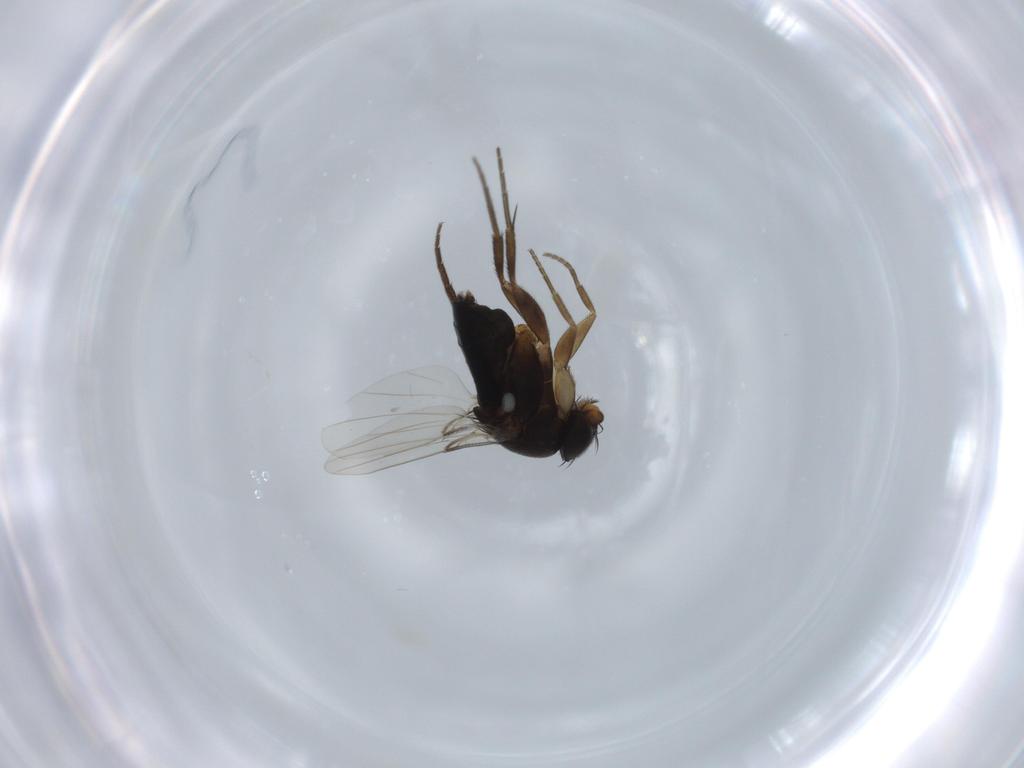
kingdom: Animalia
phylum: Arthropoda
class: Insecta
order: Diptera
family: Phoridae
